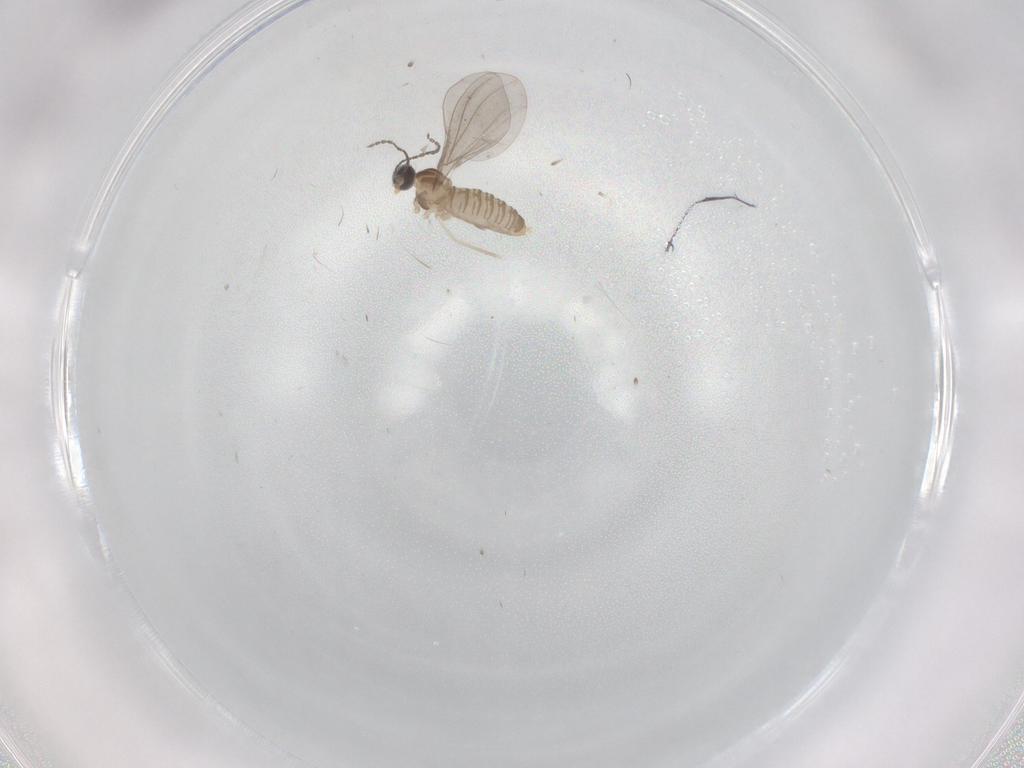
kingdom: Animalia
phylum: Arthropoda
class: Insecta
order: Diptera
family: Cecidomyiidae
